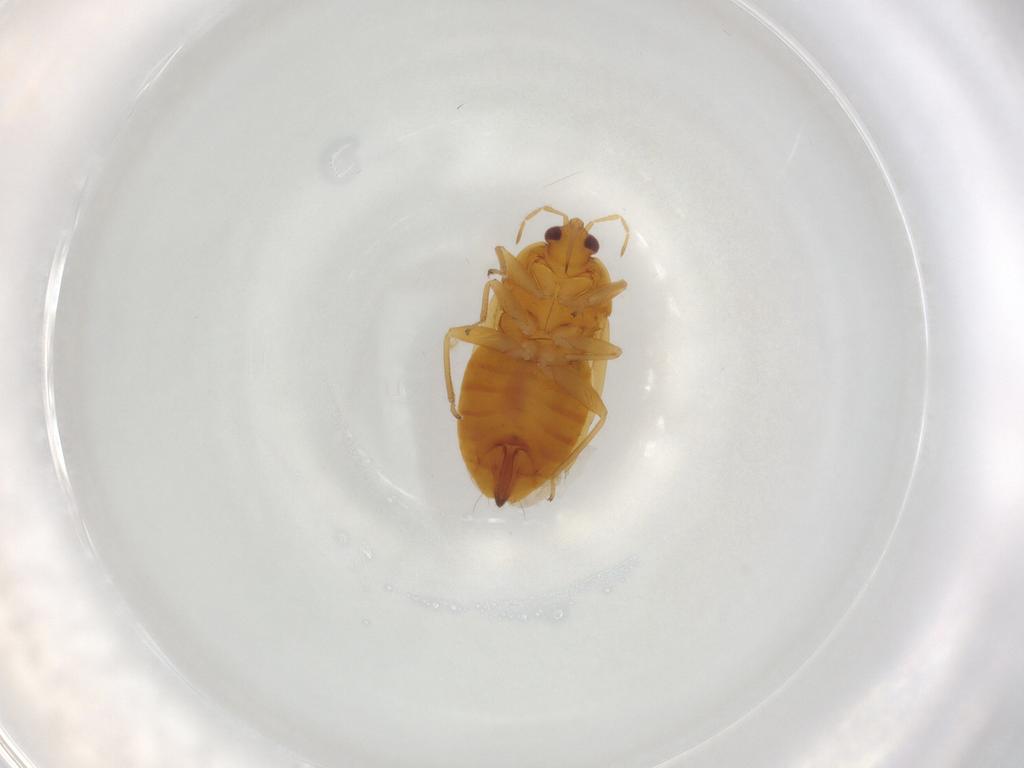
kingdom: Animalia
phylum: Arthropoda
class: Insecta
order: Hemiptera
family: Anthocoridae
